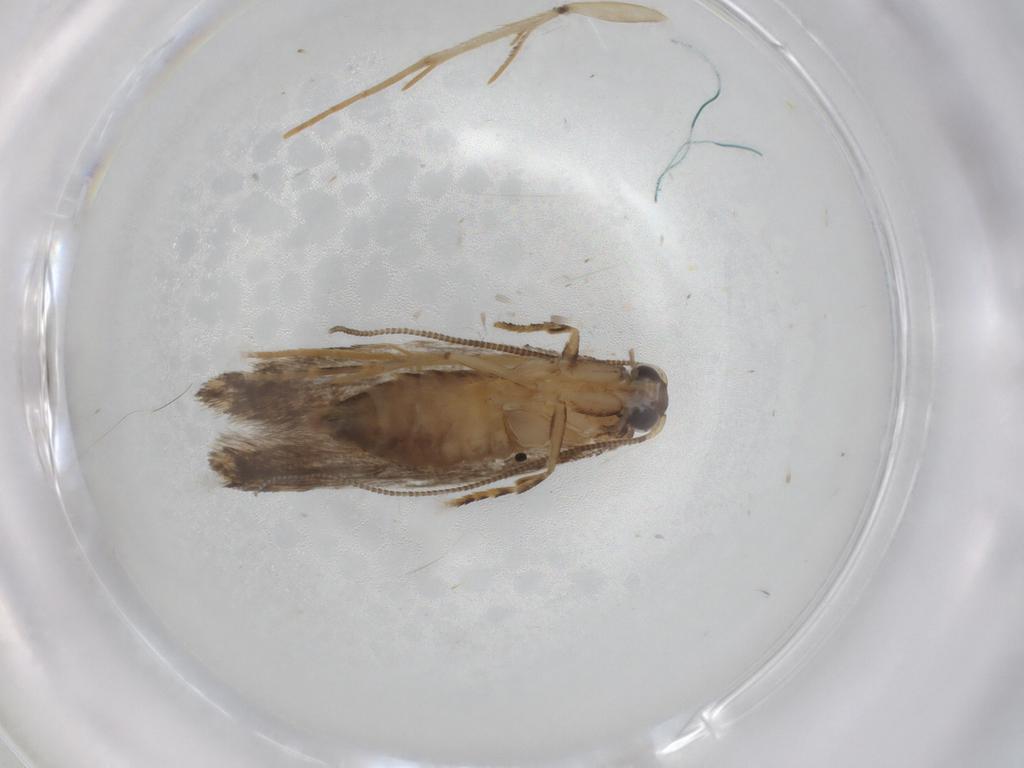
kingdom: Animalia
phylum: Arthropoda
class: Insecta
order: Lepidoptera
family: Tineidae
